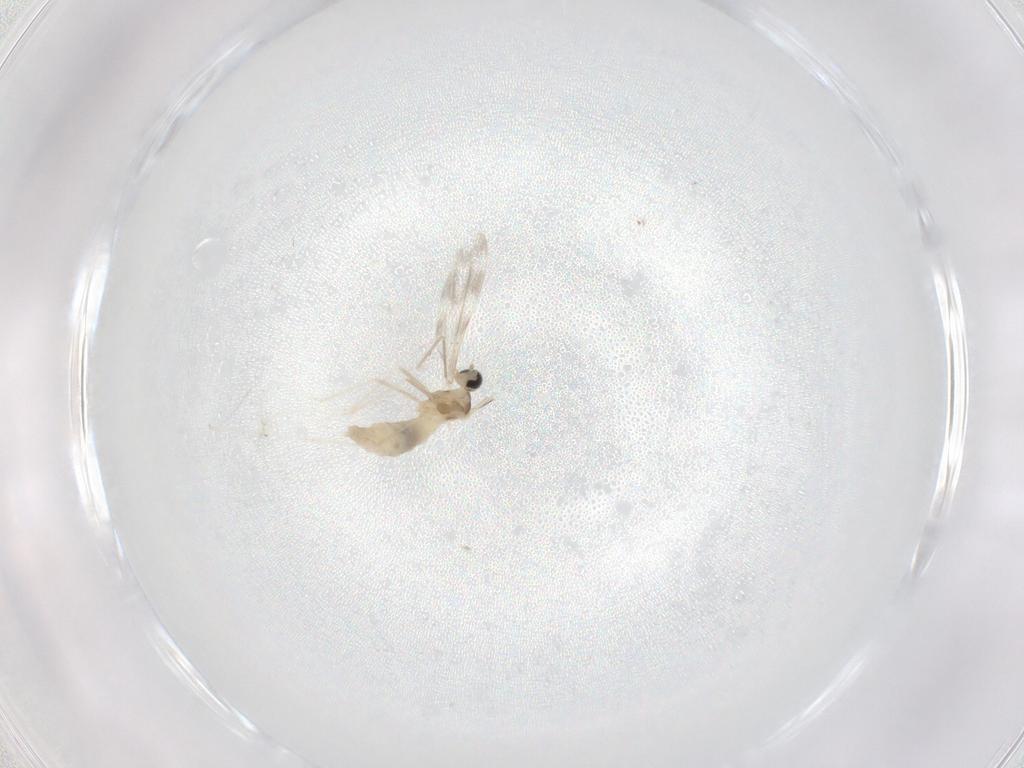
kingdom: Animalia
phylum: Arthropoda
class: Insecta
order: Diptera
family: Cecidomyiidae
